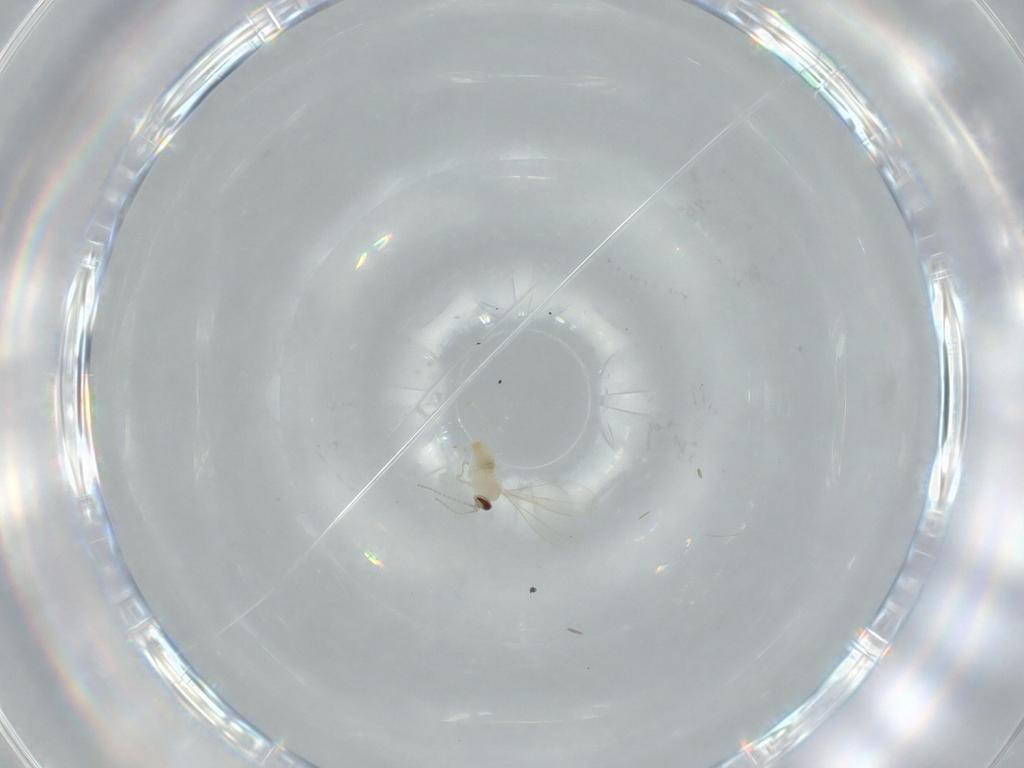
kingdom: Animalia
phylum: Arthropoda
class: Insecta
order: Diptera
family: Cecidomyiidae
